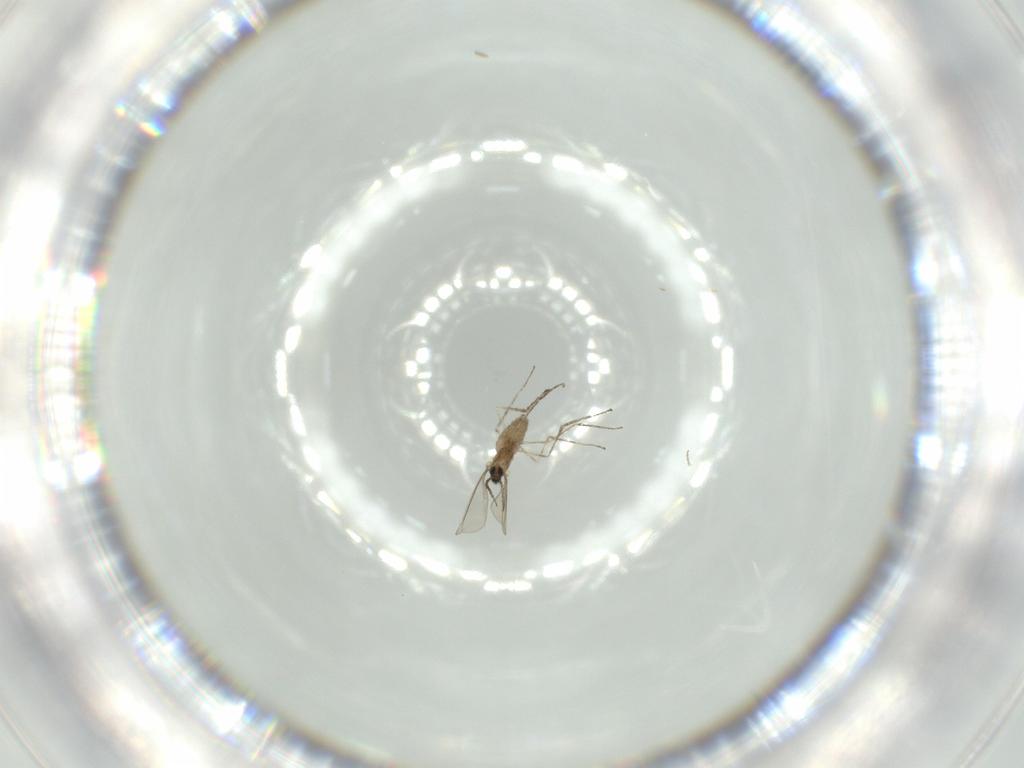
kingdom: Animalia
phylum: Arthropoda
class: Insecta
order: Diptera
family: Cecidomyiidae
